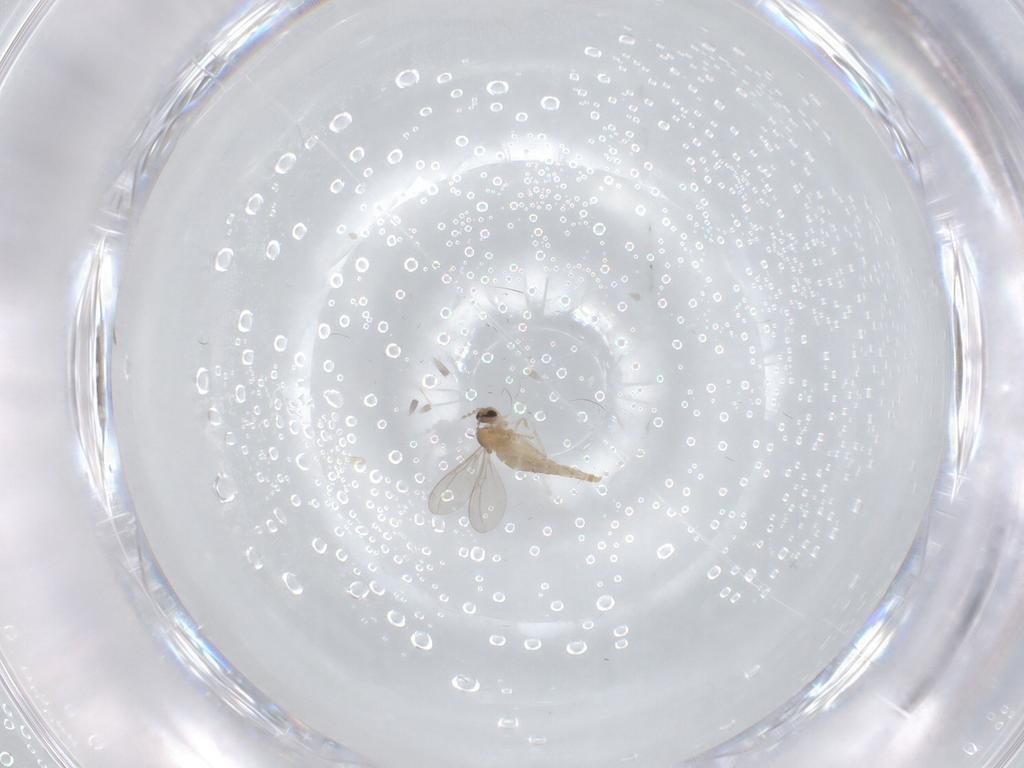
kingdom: Animalia
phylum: Arthropoda
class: Insecta
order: Diptera
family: Cecidomyiidae
